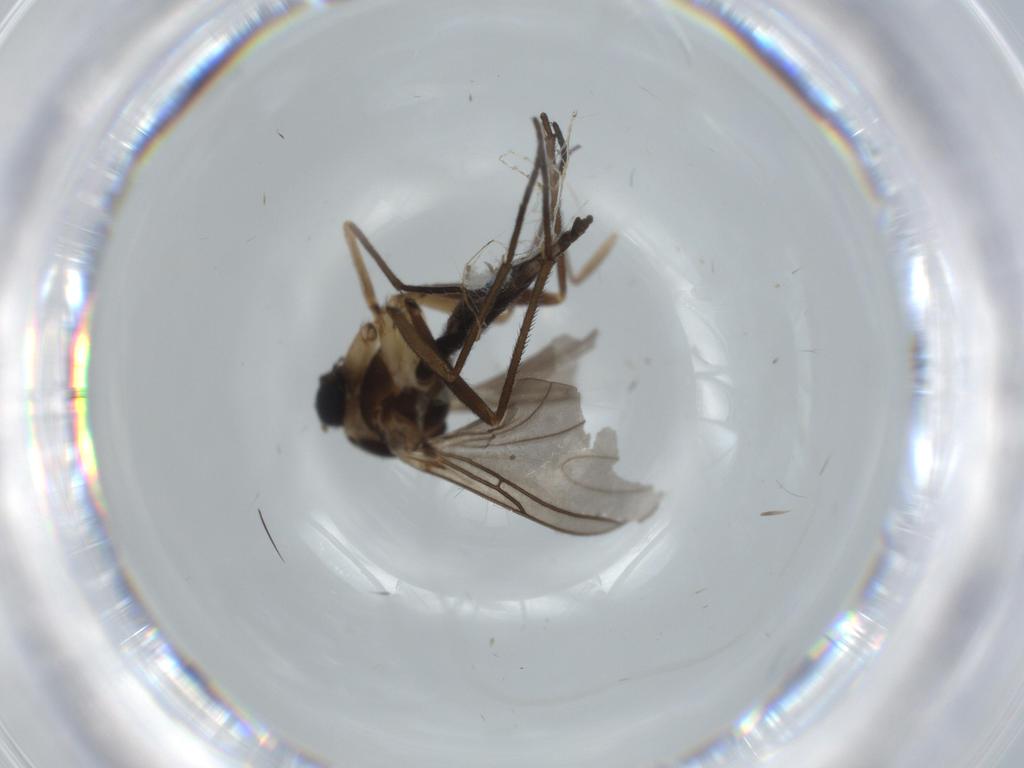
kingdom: Animalia
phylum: Arthropoda
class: Insecta
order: Diptera
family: Sciaridae
